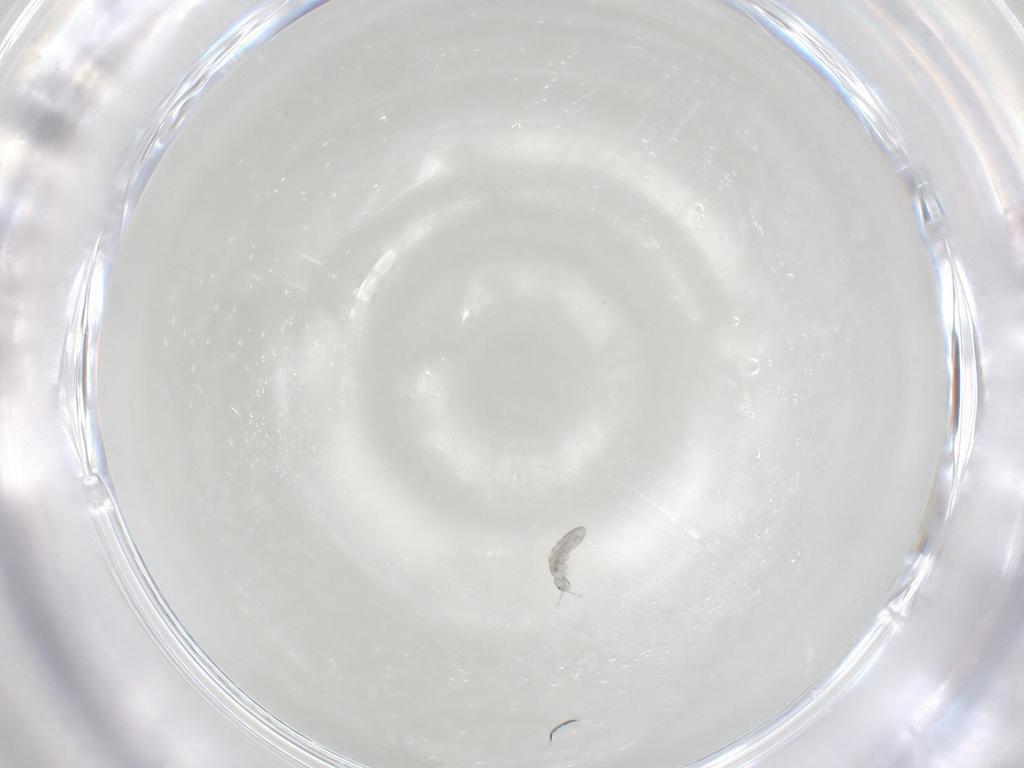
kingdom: Animalia
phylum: Arthropoda
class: Collembola
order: Entomobryomorpha
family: Isotomidae
